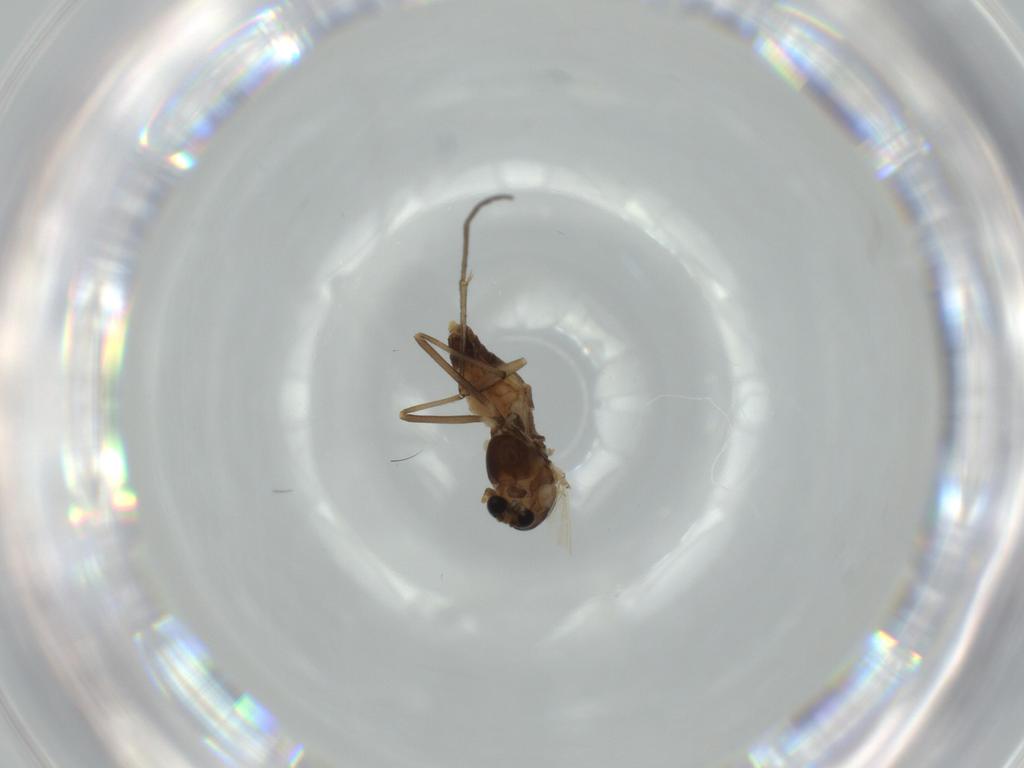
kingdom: Animalia
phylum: Arthropoda
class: Insecta
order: Diptera
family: Chironomidae
